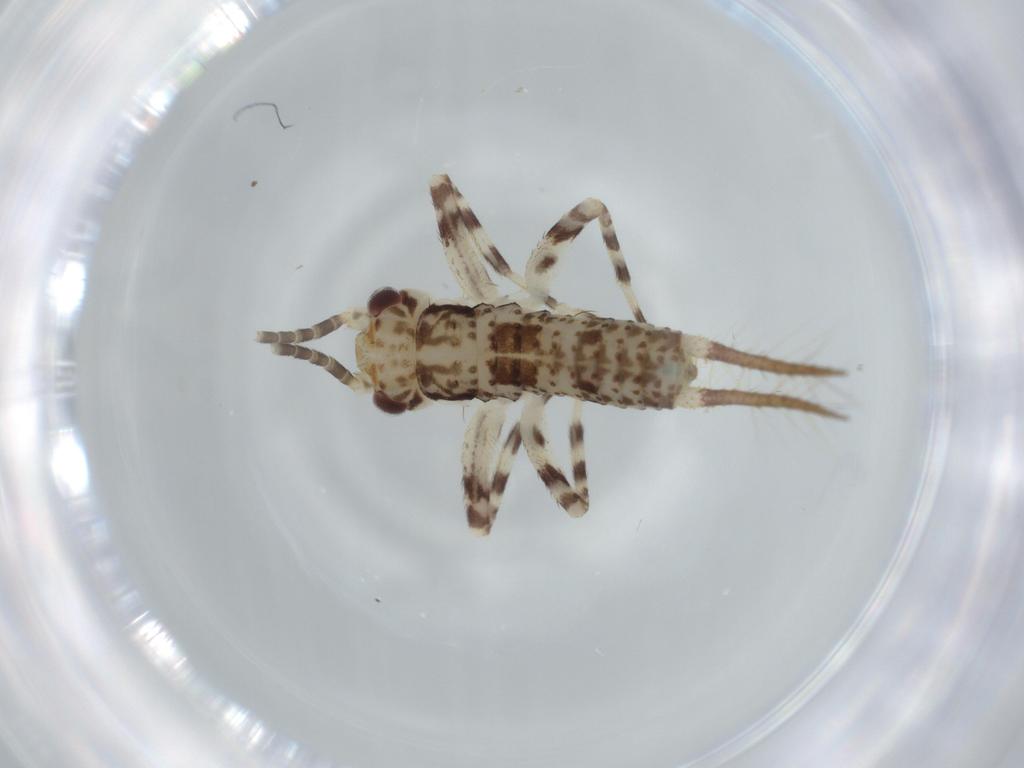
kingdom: Animalia
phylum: Arthropoda
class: Insecta
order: Orthoptera
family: Gryllidae
